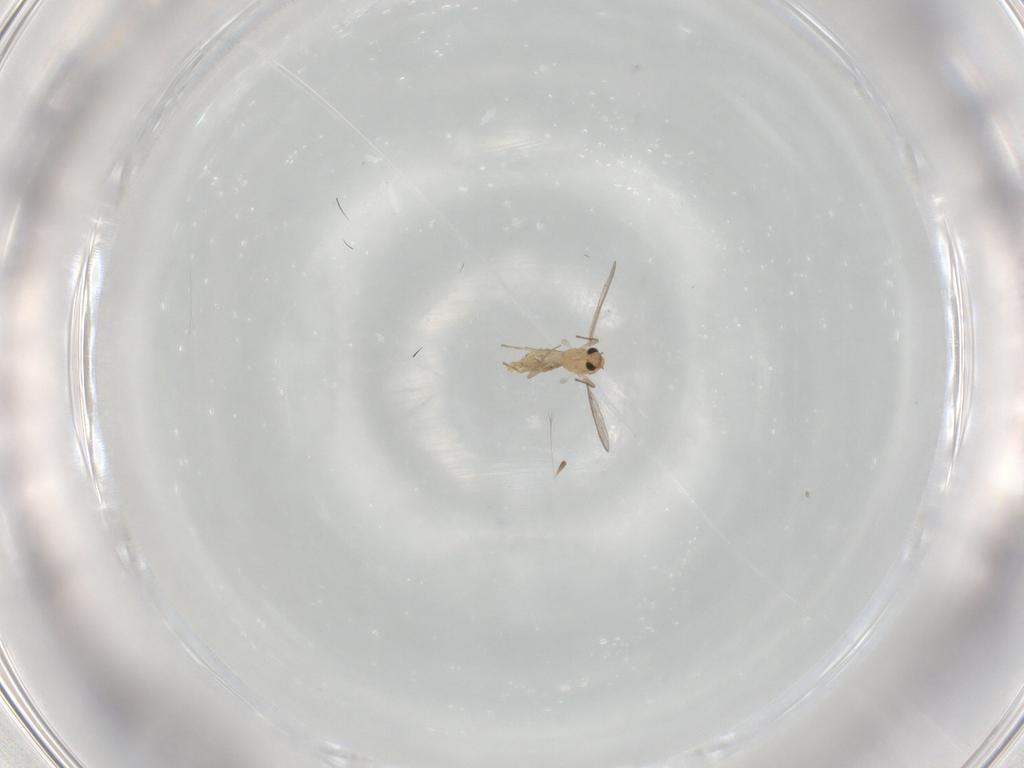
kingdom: Animalia
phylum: Arthropoda
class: Insecta
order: Diptera
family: Chironomidae
